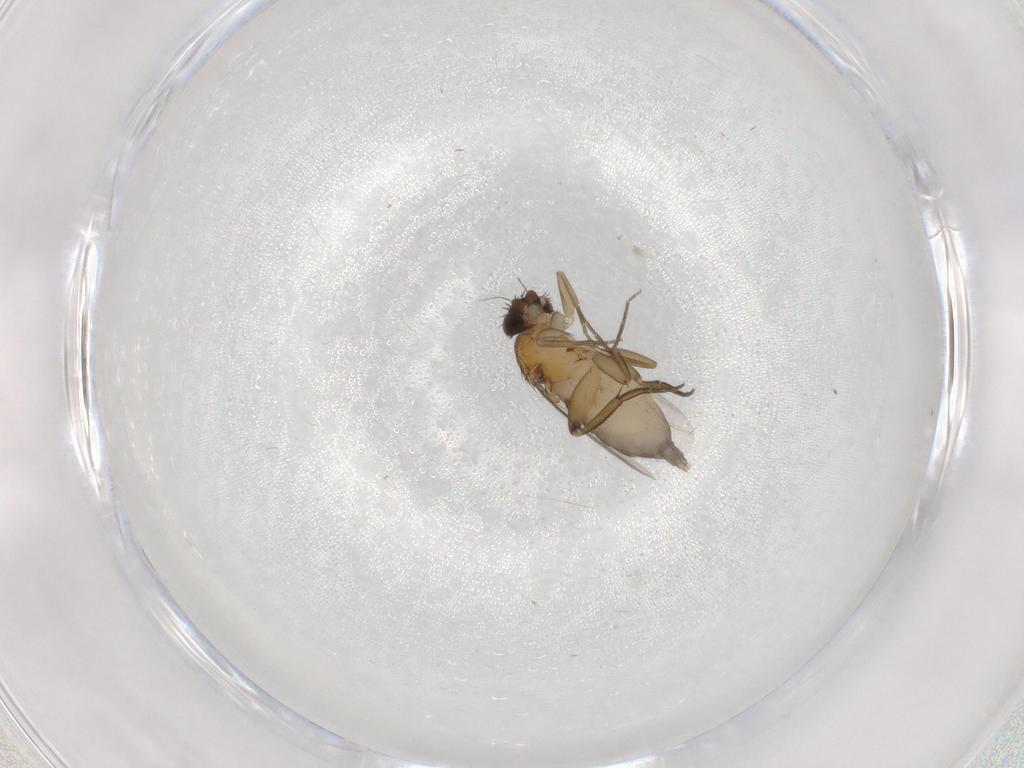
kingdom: Animalia
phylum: Arthropoda
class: Insecta
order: Diptera
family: Phoridae
